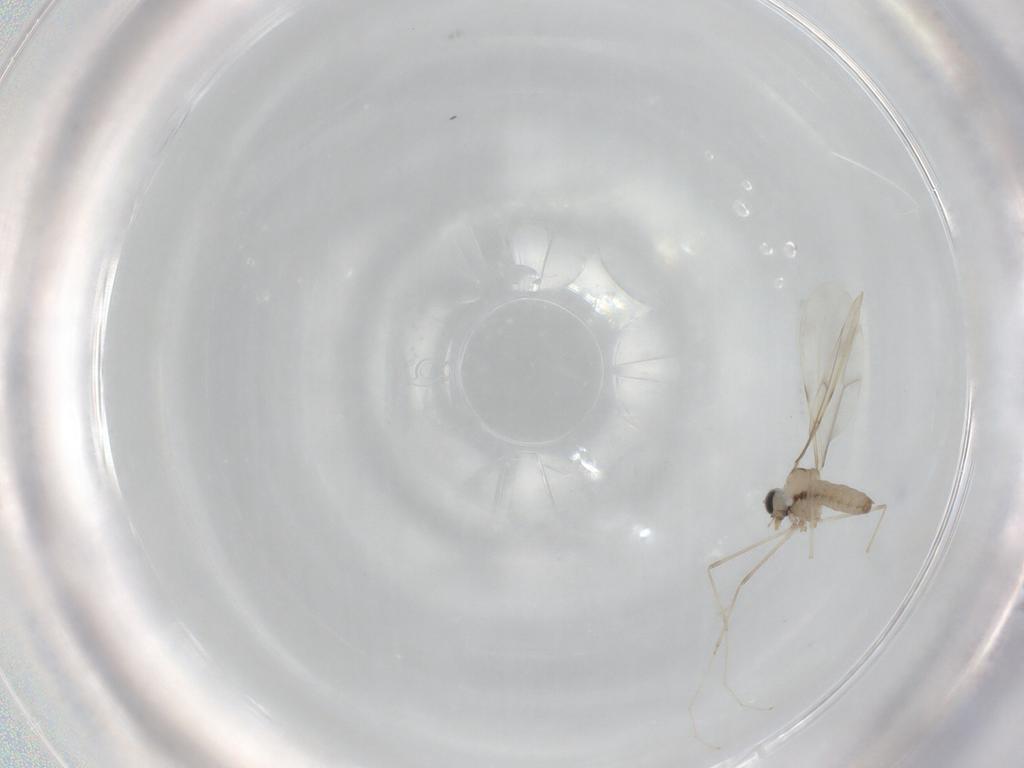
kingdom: Animalia
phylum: Arthropoda
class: Insecta
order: Diptera
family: Cecidomyiidae
